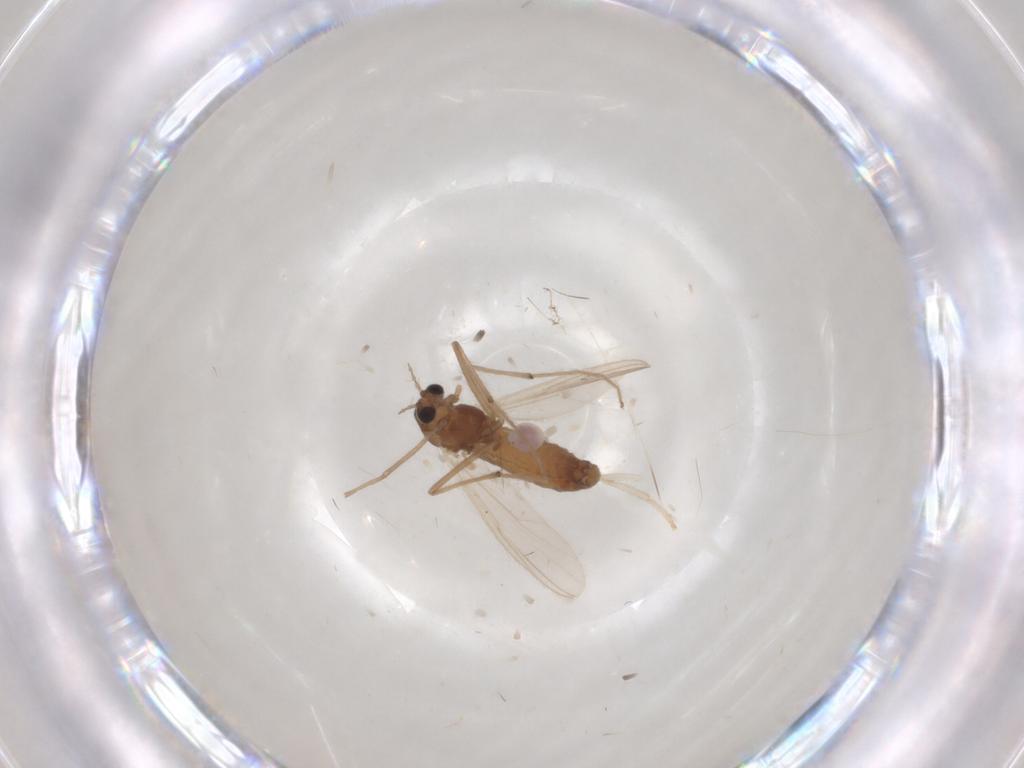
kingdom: Animalia
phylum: Arthropoda
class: Insecta
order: Diptera
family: Chironomidae
